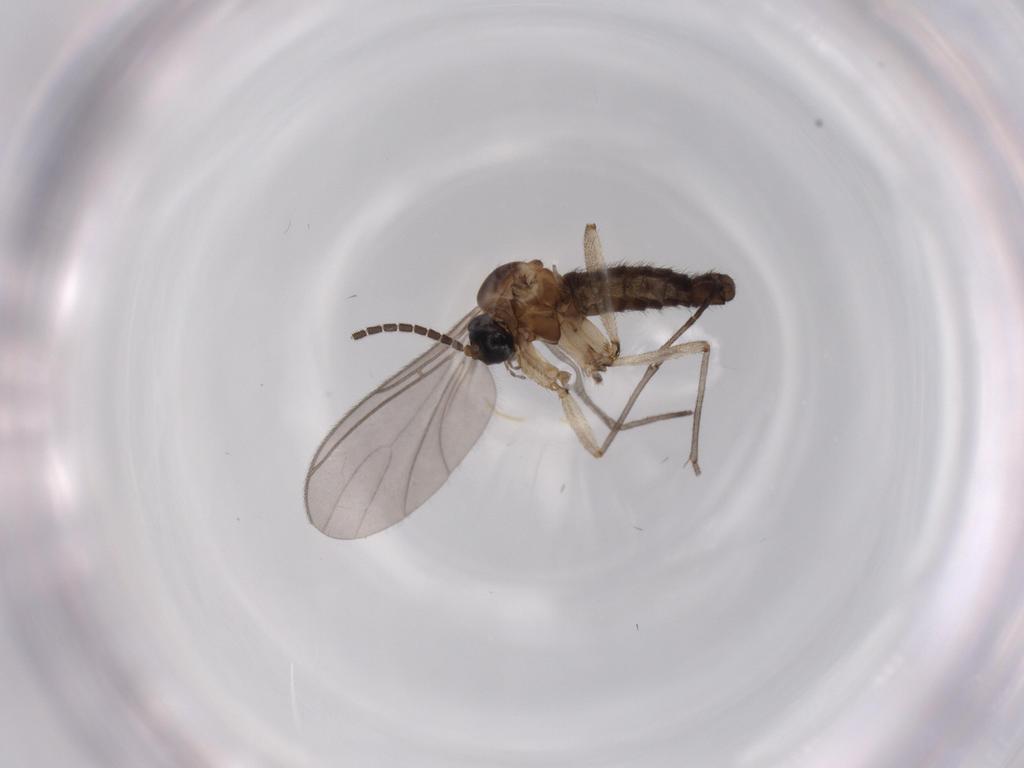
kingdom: Animalia
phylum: Arthropoda
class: Insecta
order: Diptera
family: Sciaridae
